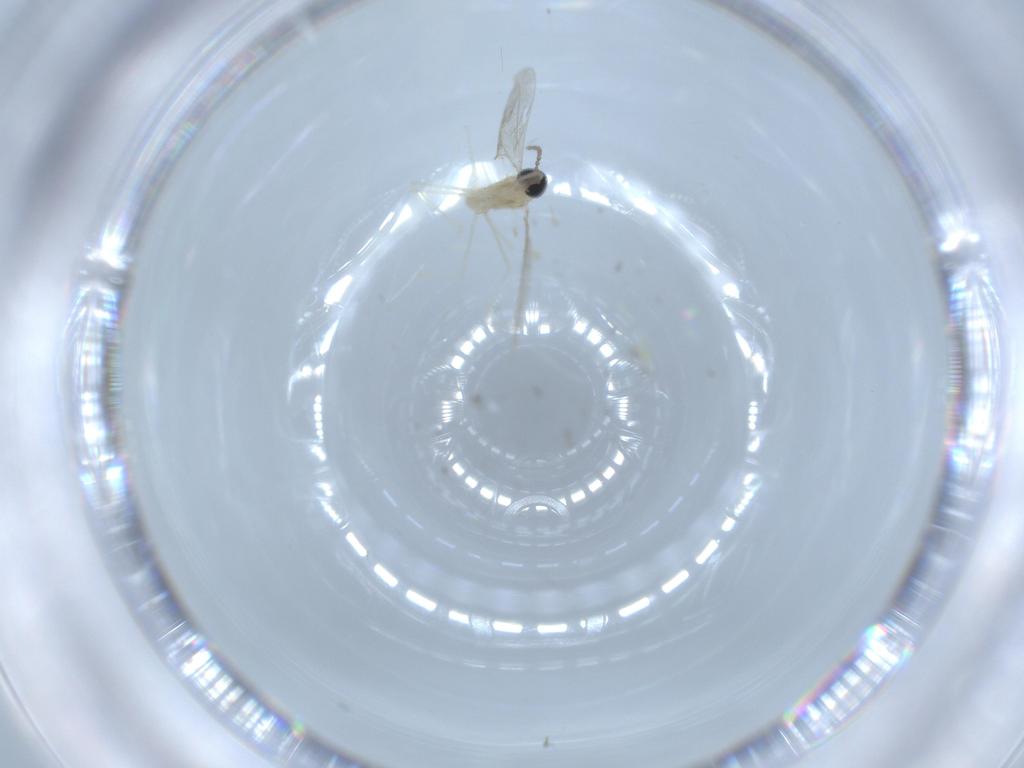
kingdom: Animalia
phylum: Arthropoda
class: Insecta
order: Diptera
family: Cecidomyiidae
